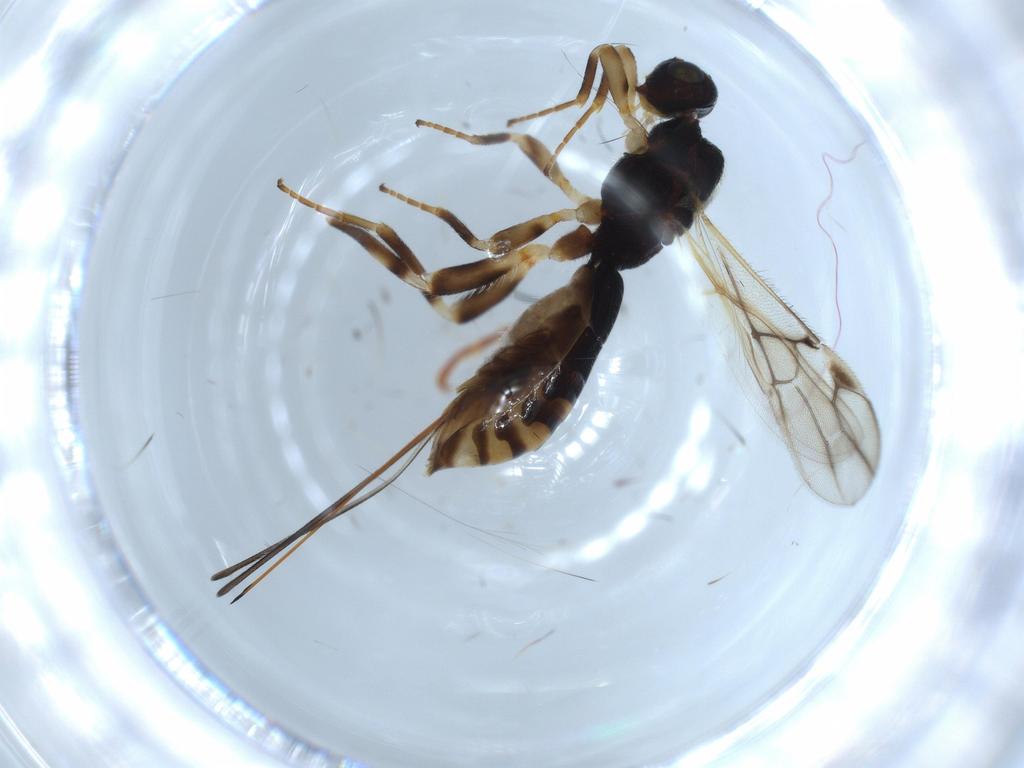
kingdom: Animalia
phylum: Arthropoda
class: Insecta
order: Hymenoptera
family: Braconidae
